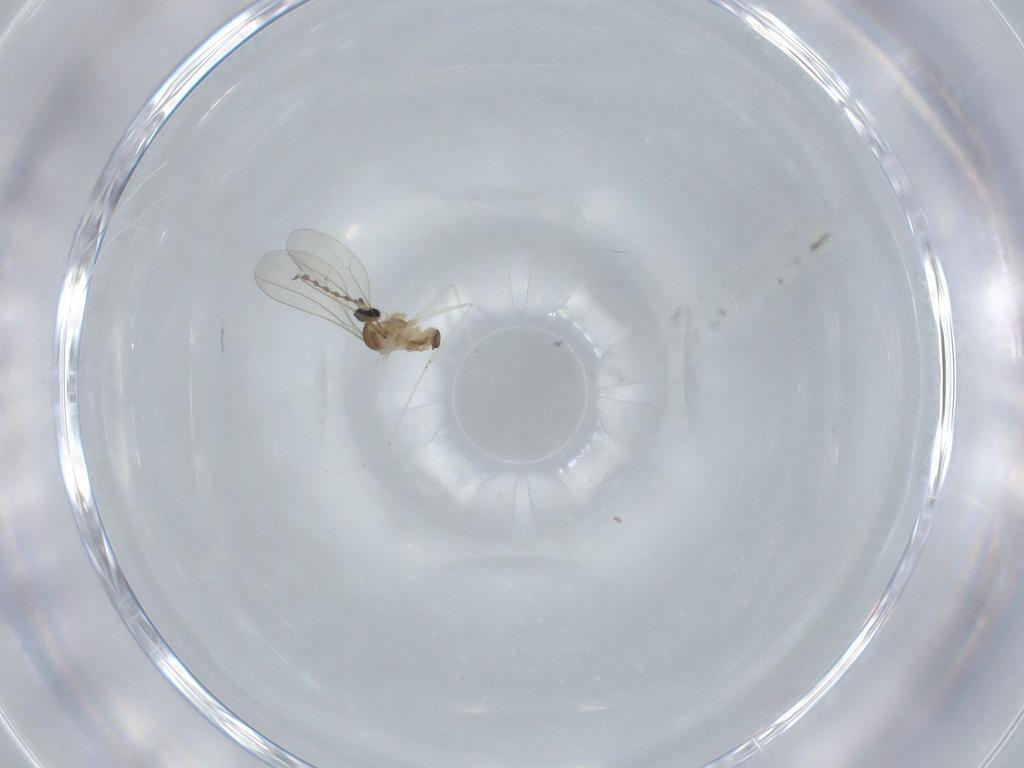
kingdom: Animalia
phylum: Arthropoda
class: Insecta
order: Diptera
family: Cecidomyiidae
